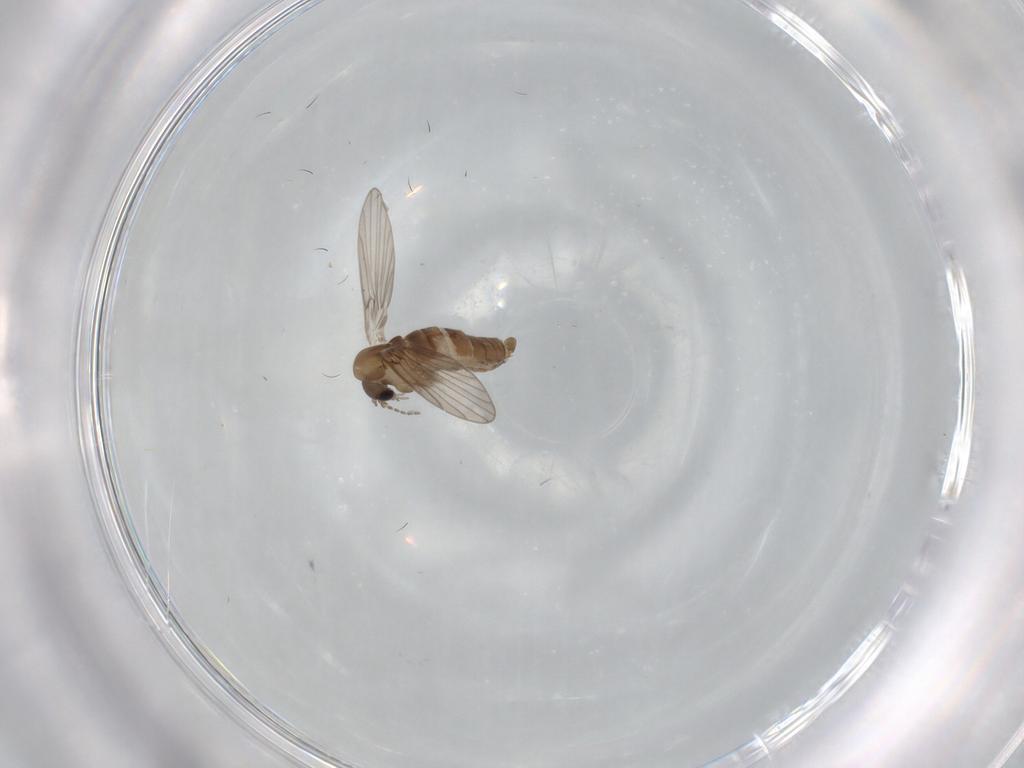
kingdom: Animalia
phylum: Arthropoda
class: Insecta
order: Diptera
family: Psychodidae
